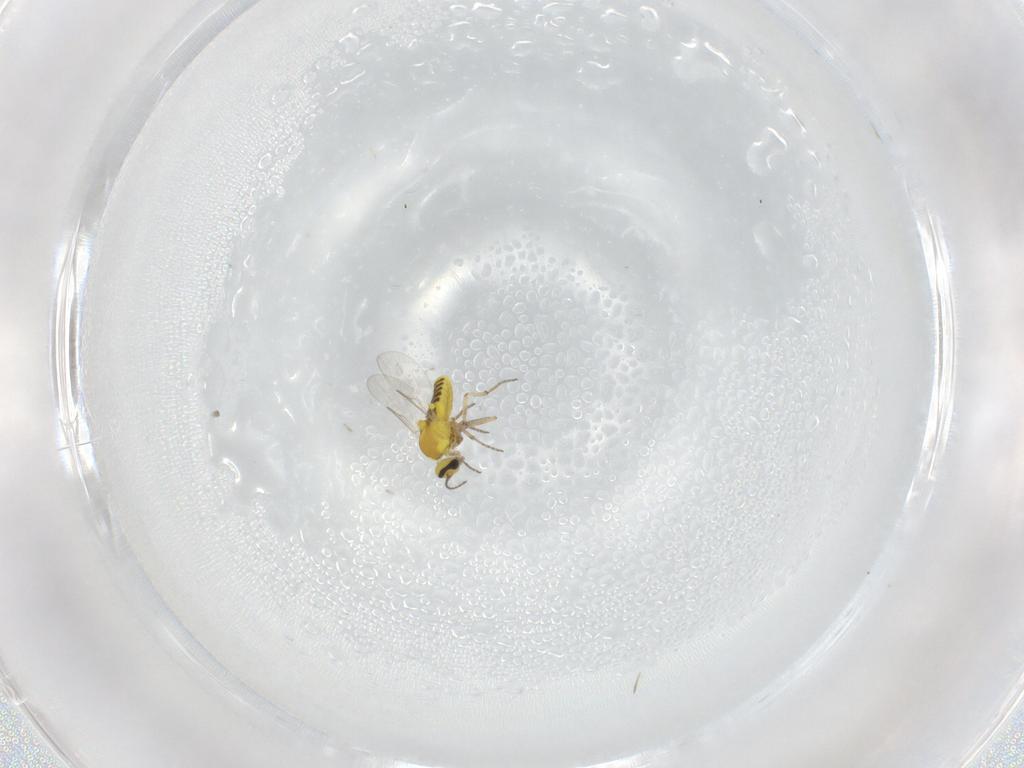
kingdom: Animalia
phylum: Arthropoda
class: Insecta
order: Diptera
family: Ceratopogonidae
